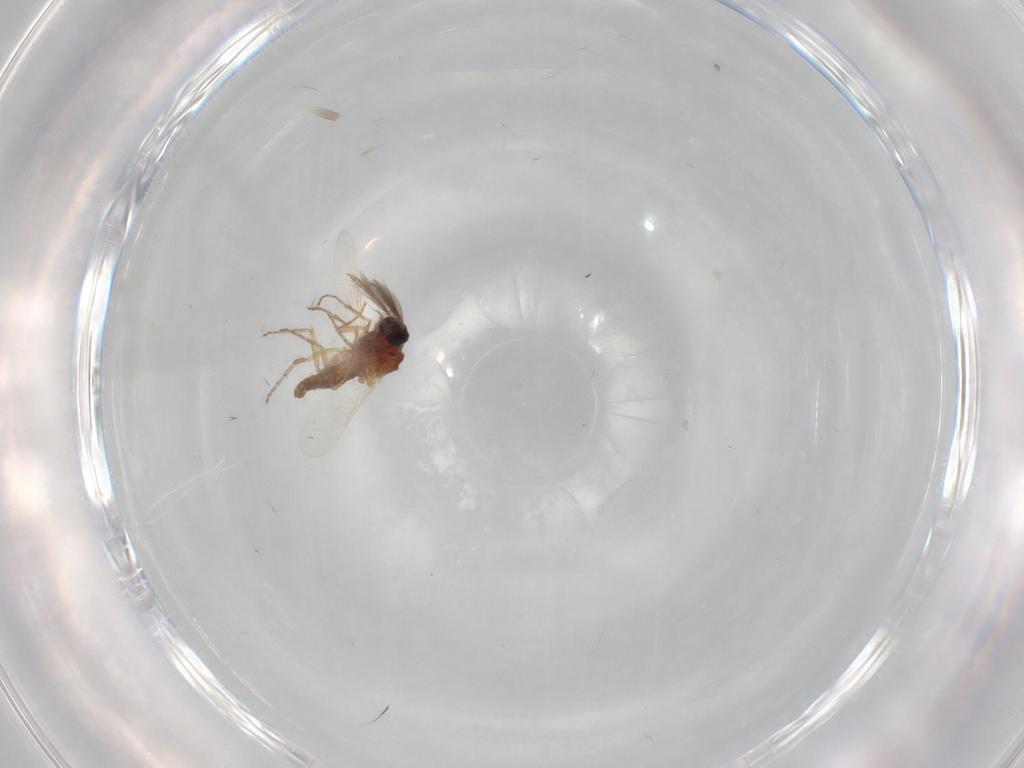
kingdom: Animalia
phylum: Arthropoda
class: Insecta
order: Diptera
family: Ceratopogonidae
